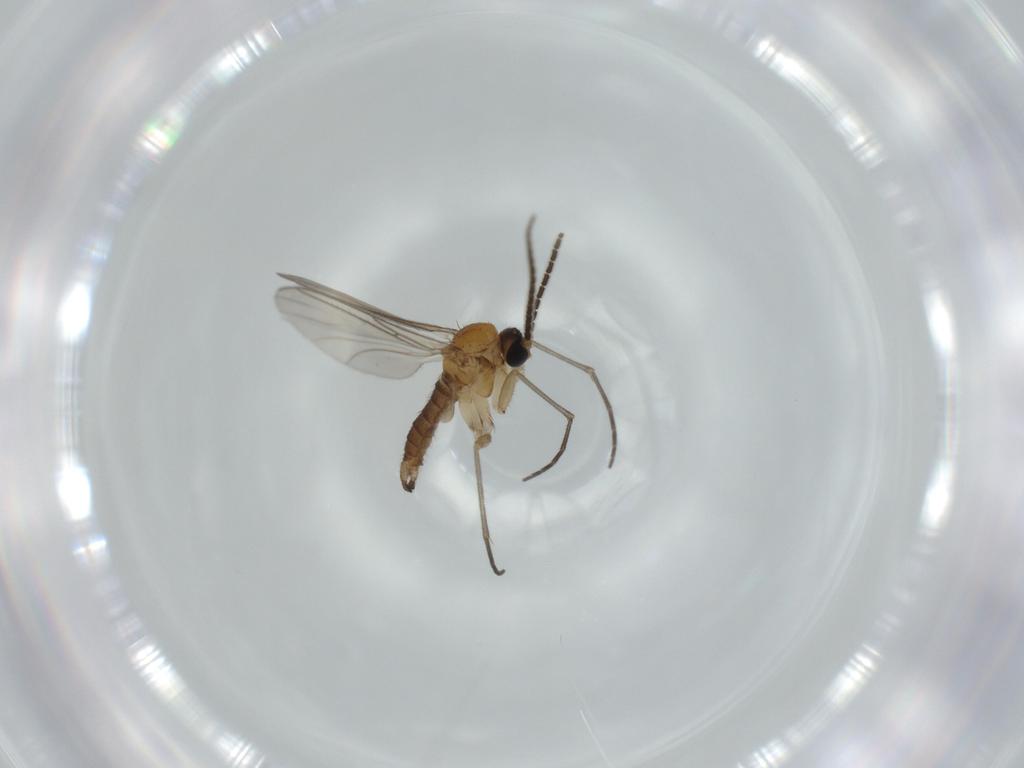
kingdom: Animalia
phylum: Arthropoda
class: Insecta
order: Diptera
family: Sciaridae
